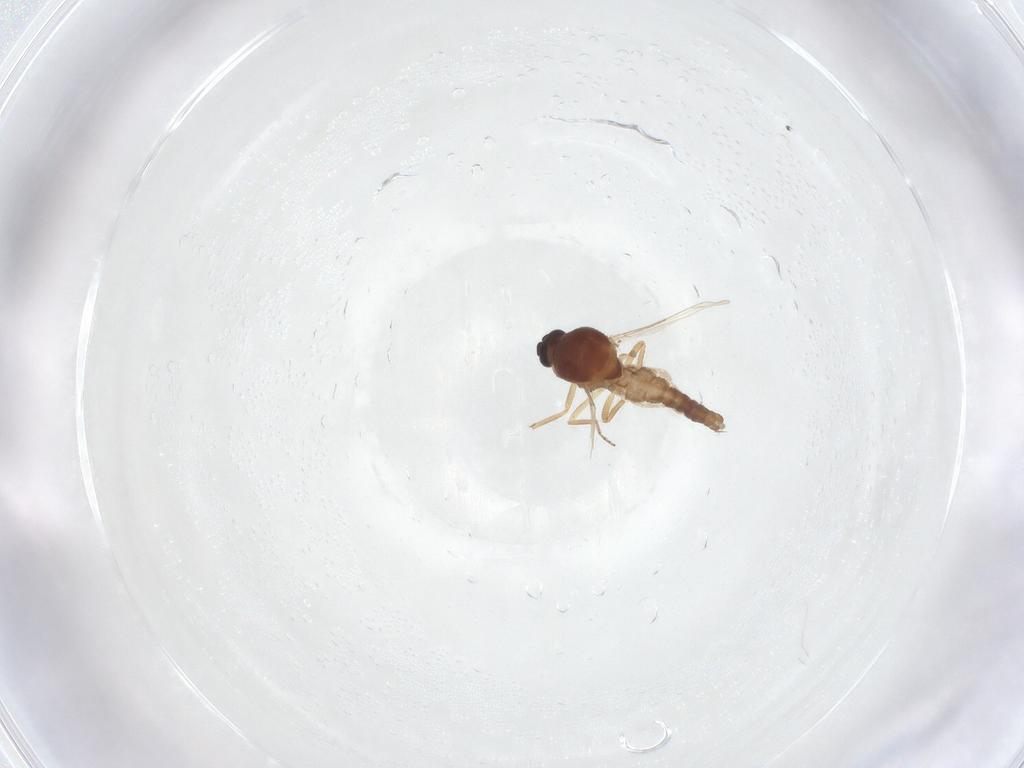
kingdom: Animalia
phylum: Arthropoda
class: Insecta
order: Diptera
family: Ceratopogonidae
